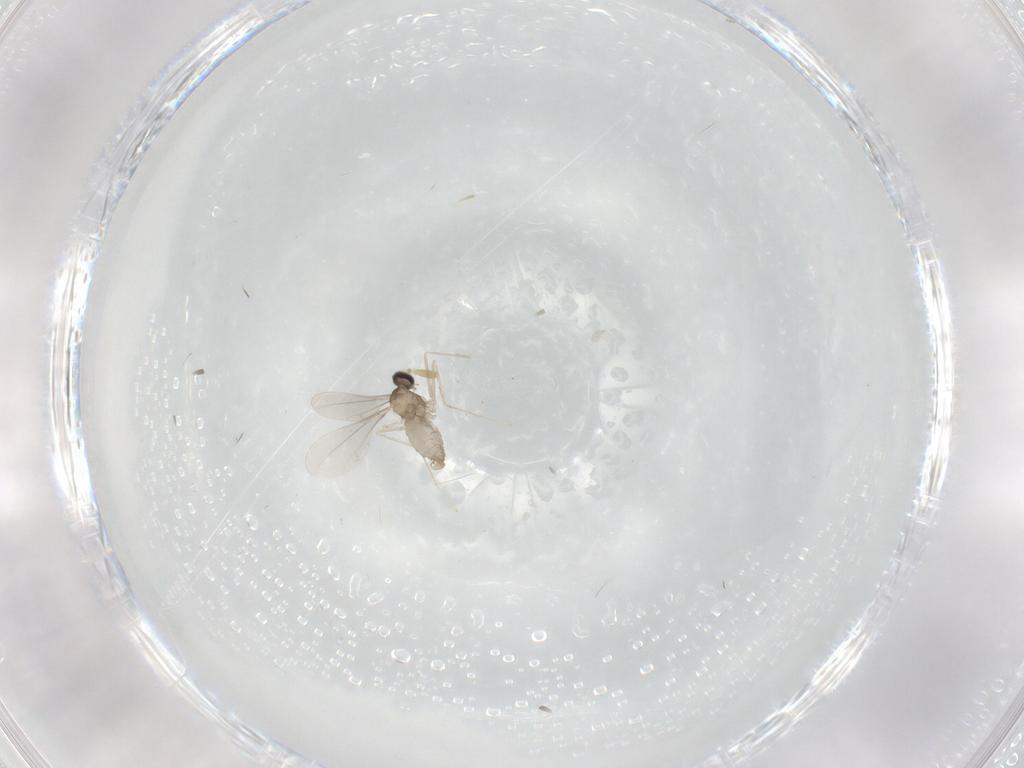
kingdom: Animalia
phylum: Arthropoda
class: Insecta
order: Diptera
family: Cecidomyiidae
